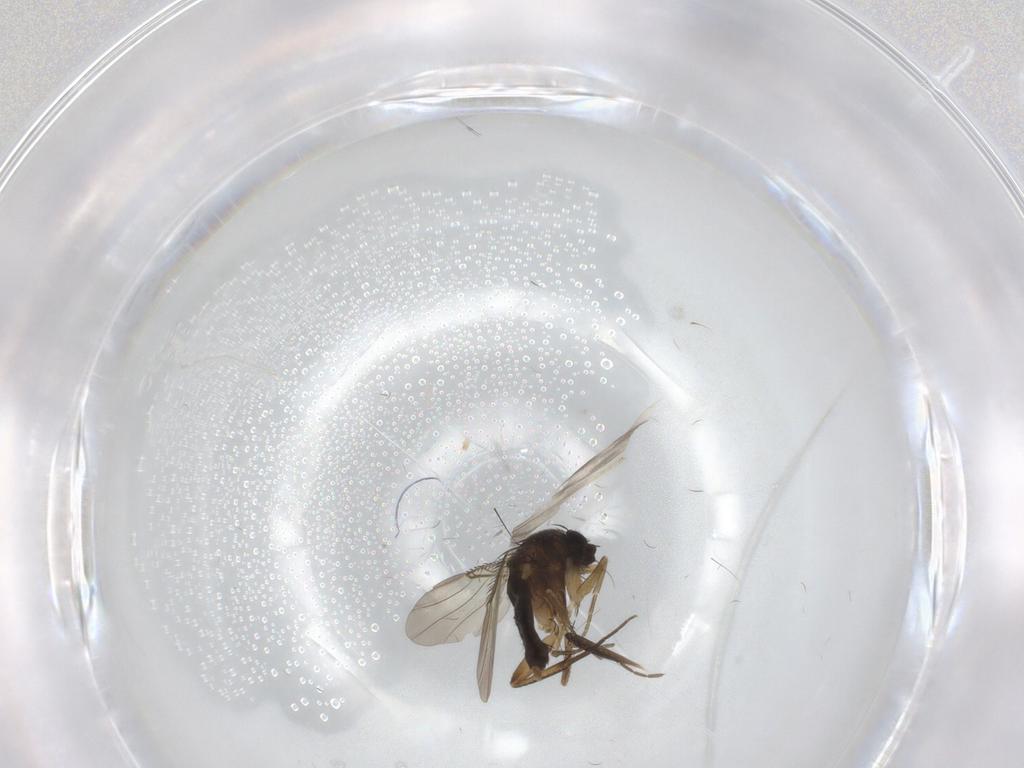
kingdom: Animalia
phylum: Arthropoda
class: Insecta
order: Diptera
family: Phoridae
